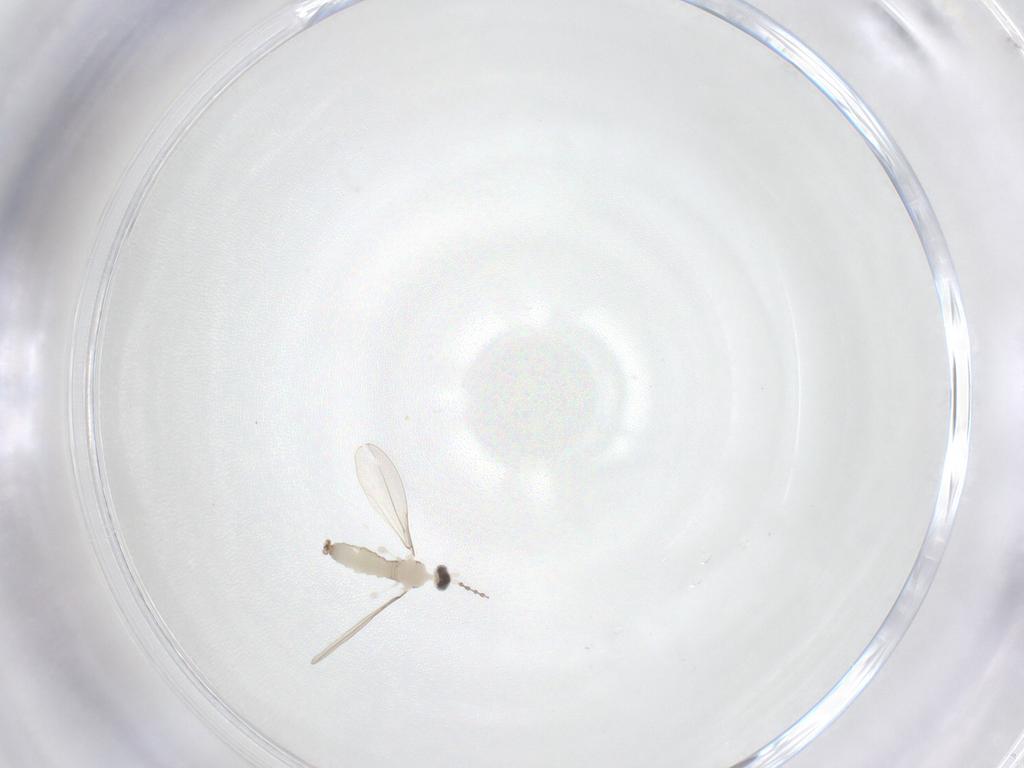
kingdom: Animalia
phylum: Arthropoda
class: Insecta
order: Diptera
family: Cecidomyiidae
